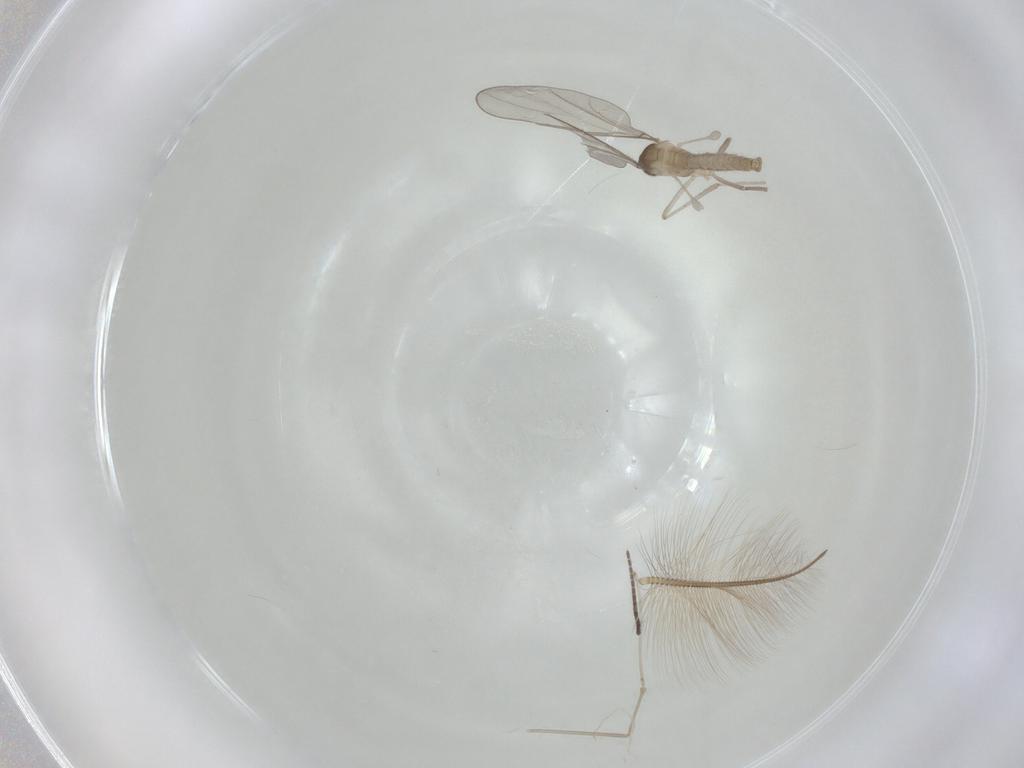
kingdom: Animalia
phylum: Arthropoda
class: Insecta
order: Diptera
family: Cecidomyiidae
